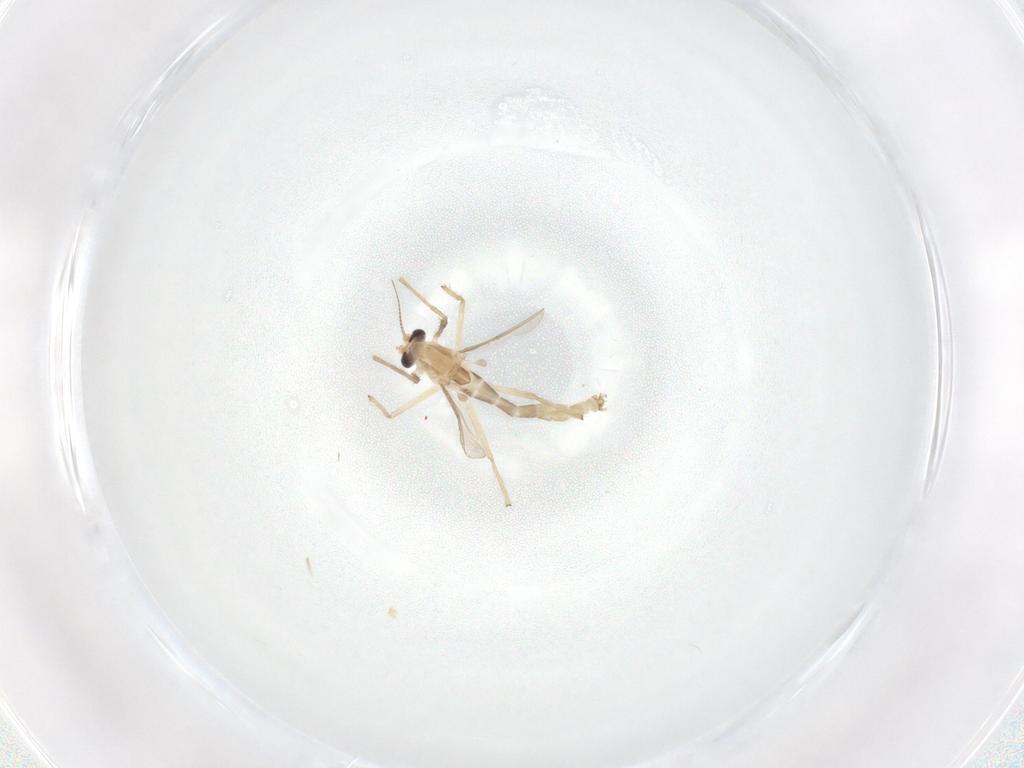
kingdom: Animalia
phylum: Arthropoda
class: Insecta
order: Diptera
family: Chironomidae
